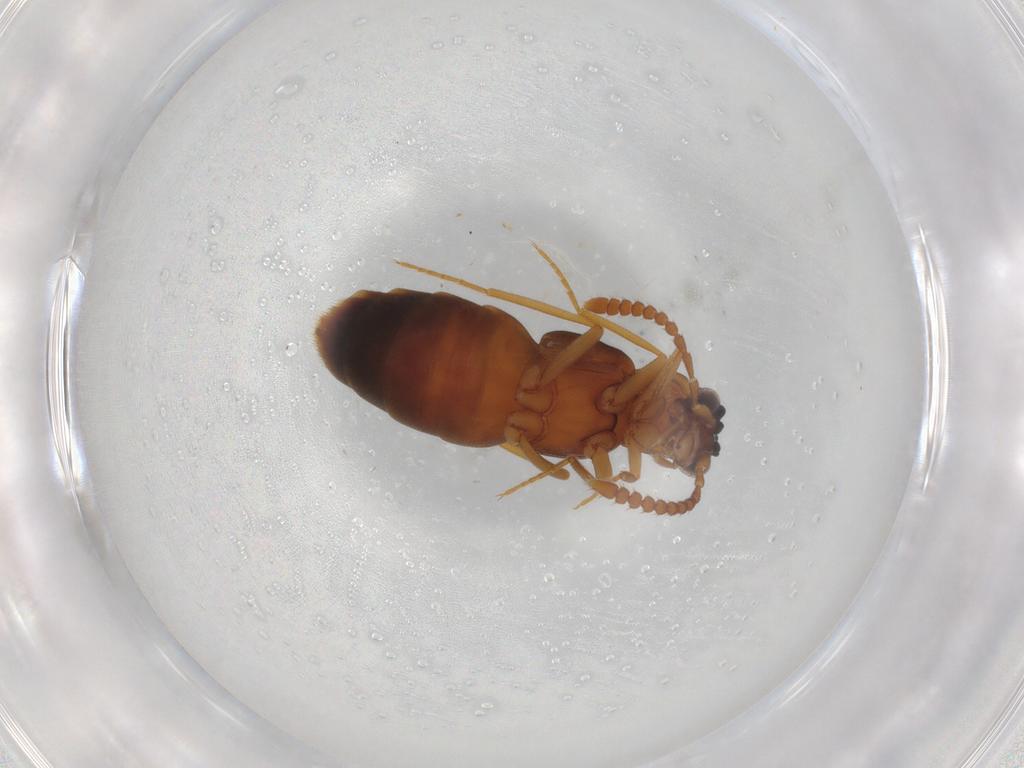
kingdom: Animalia
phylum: Arthropoda
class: Insecta
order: Coleoptera
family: Staphylinidae
